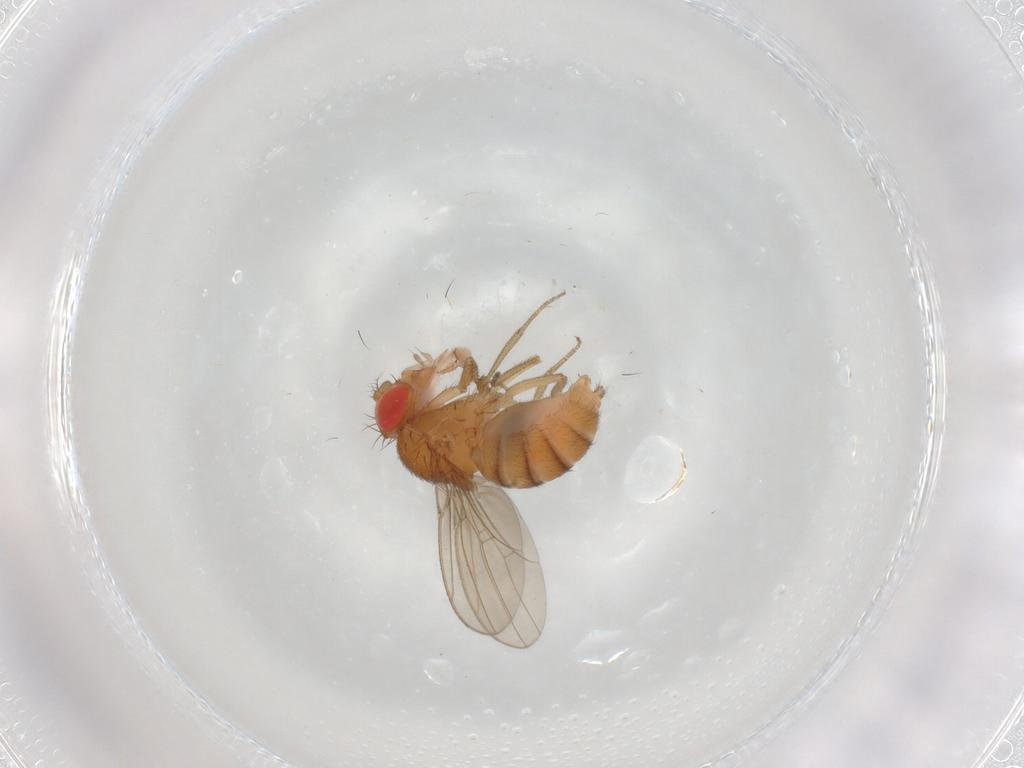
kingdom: Animalia
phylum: Arthropoda
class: Insecta
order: Diptera
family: Drosophilidae
